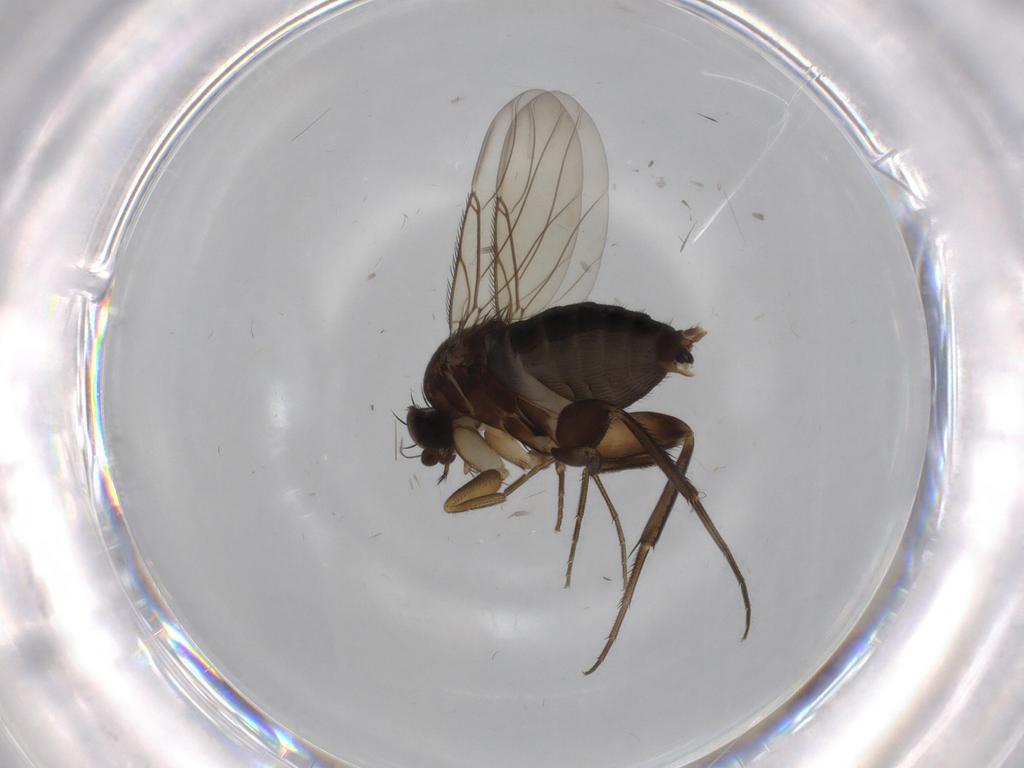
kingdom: Animalia
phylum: Arthropoda
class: Insecta
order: Diptera
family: Phoridae
